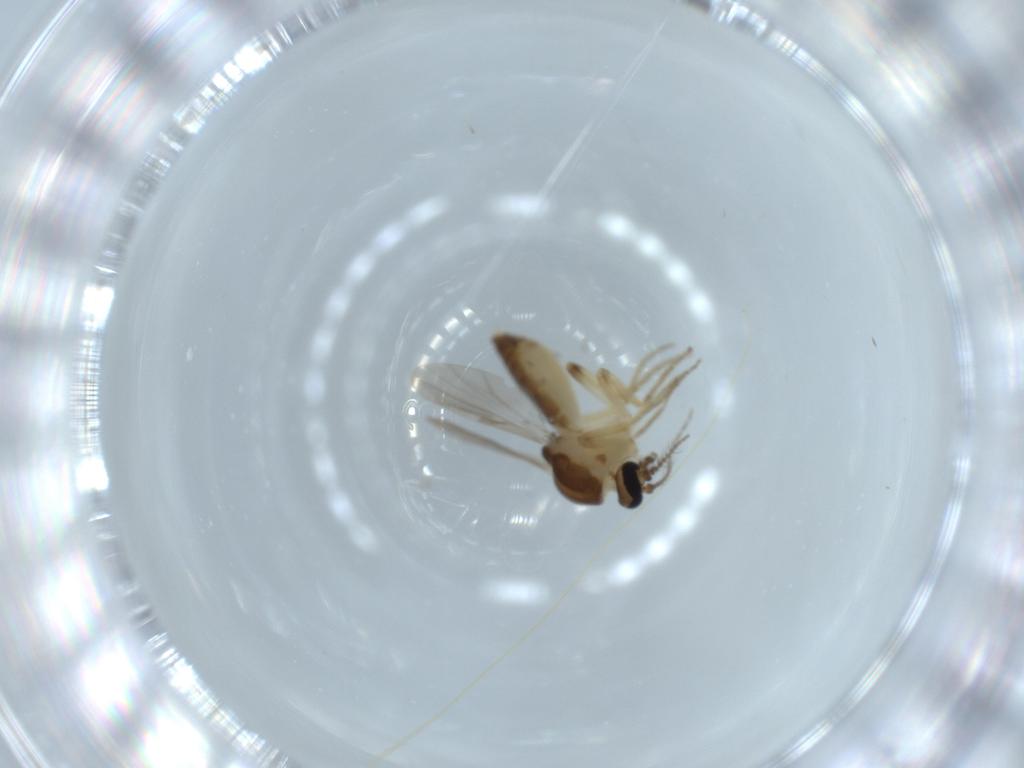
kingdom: Animalia
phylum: Arthropoda
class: Insecta
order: Diptera
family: Ceratopogonidae
